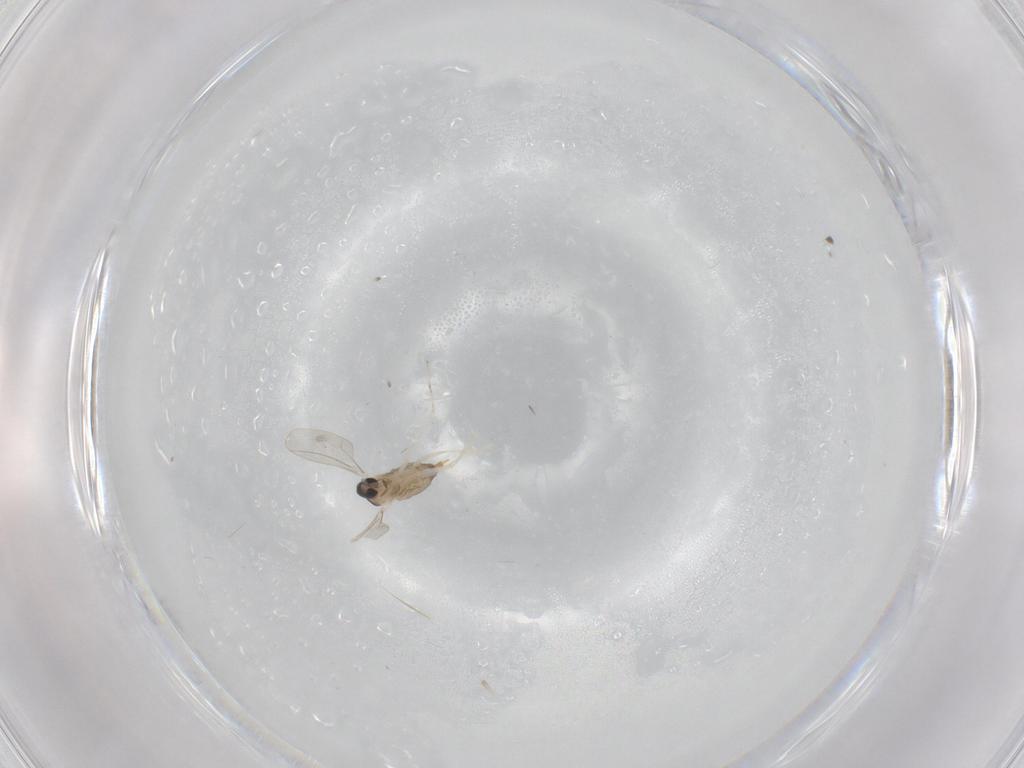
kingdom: Animalia
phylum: Arthropoda
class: Insecta
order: Diptera
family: Cecidomyiidae
